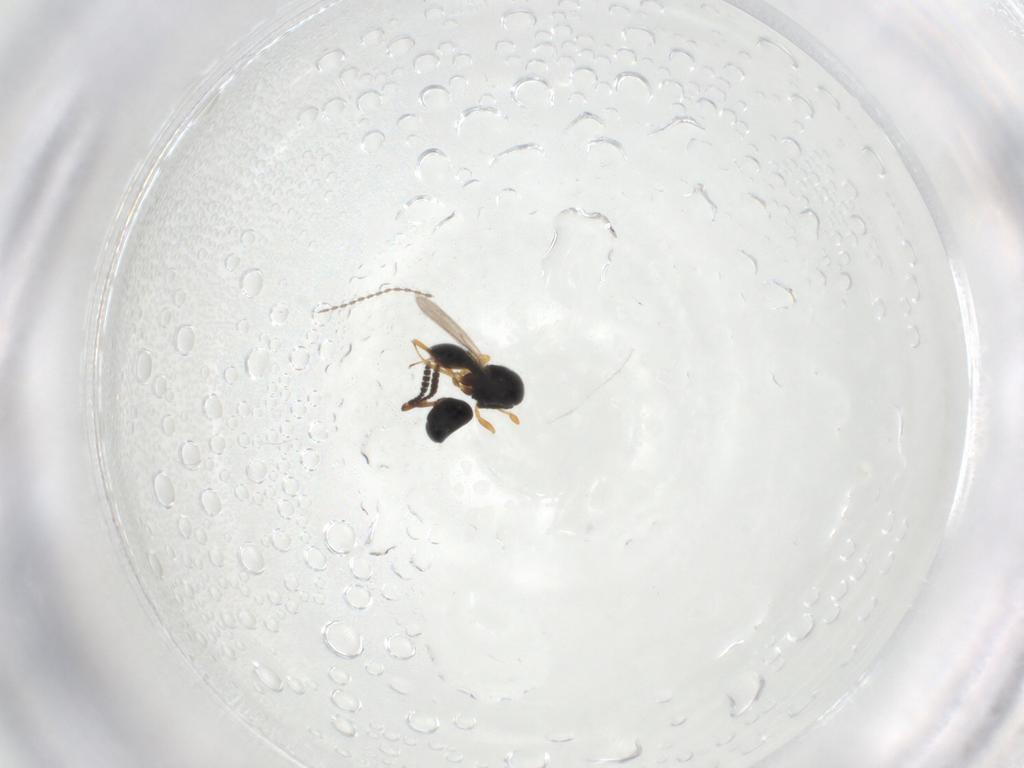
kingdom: Animalia
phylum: Arthropoda
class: Insecta
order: Hymenoptera
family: Scelionidae
